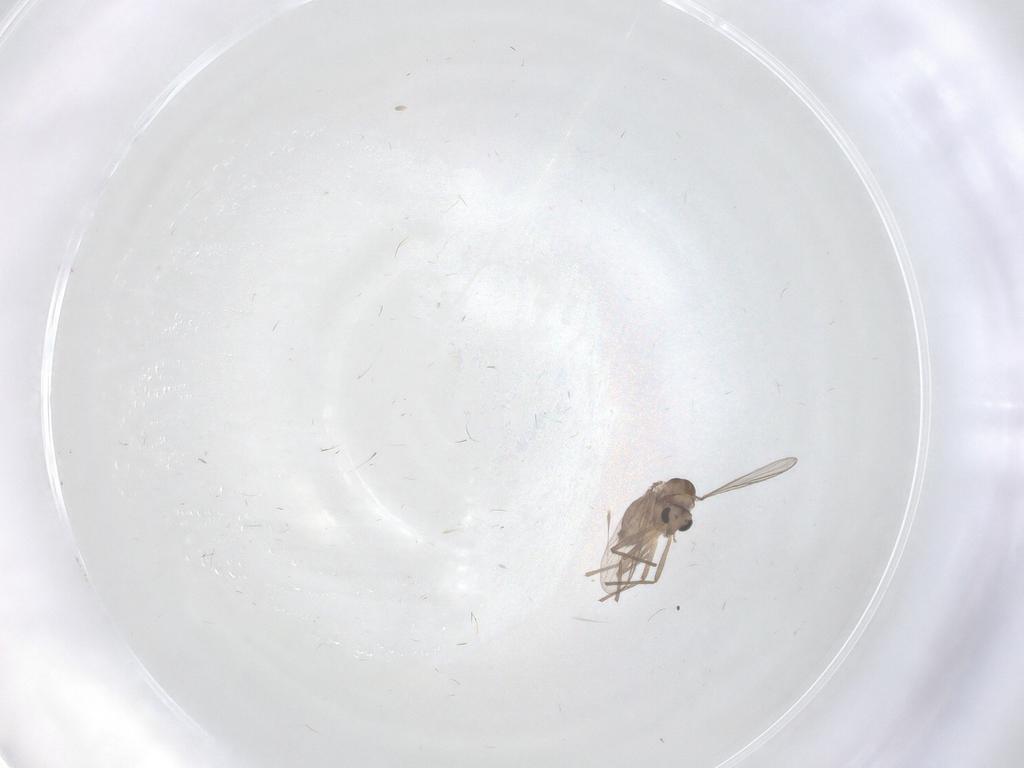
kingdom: Animalia
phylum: Arthropoda
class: Insecta
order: Diptera
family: Chironomidae
